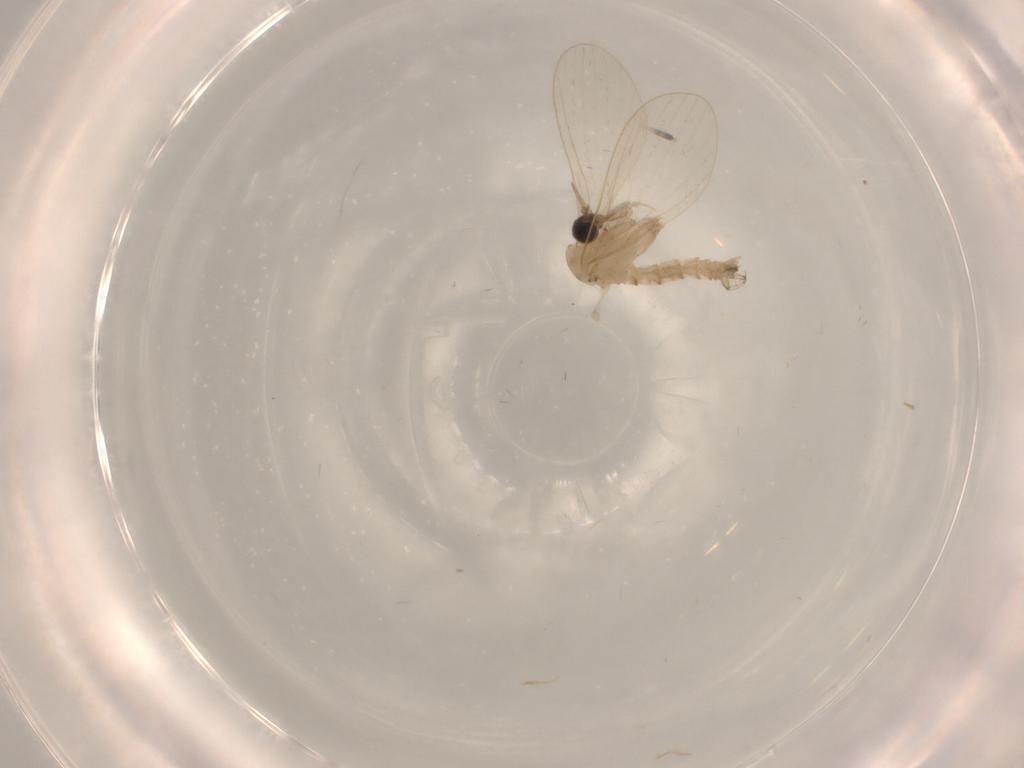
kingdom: Animalia
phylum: Arthropoda
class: Insecta
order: Diptera
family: Psychodidae
